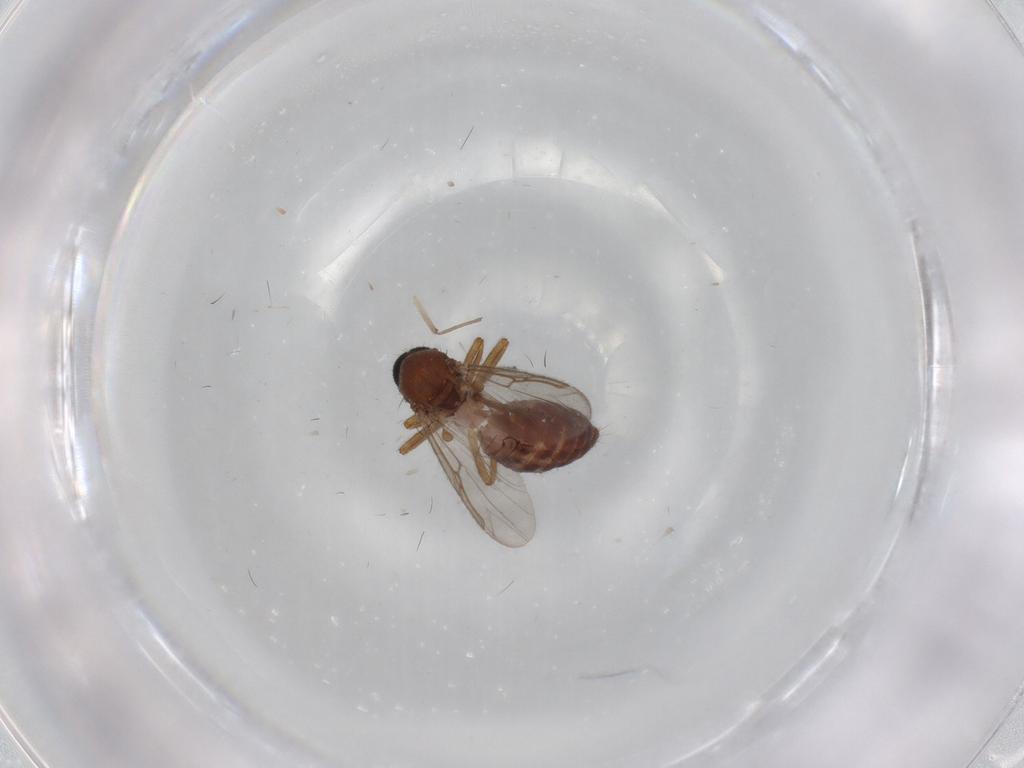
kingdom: Animalia
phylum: Arthropoda
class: Insecta
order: Diptera
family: Ceratopogonidae
